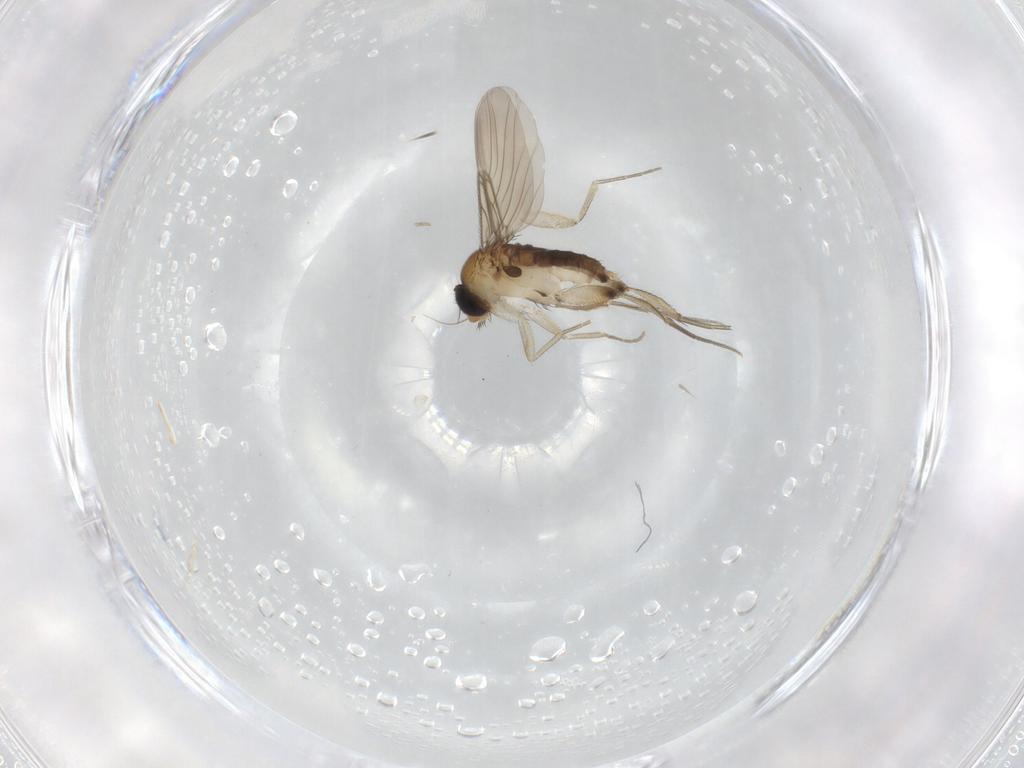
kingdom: Animalia
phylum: Arthropoda
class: Insecta
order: Diptera
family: Phoridae
